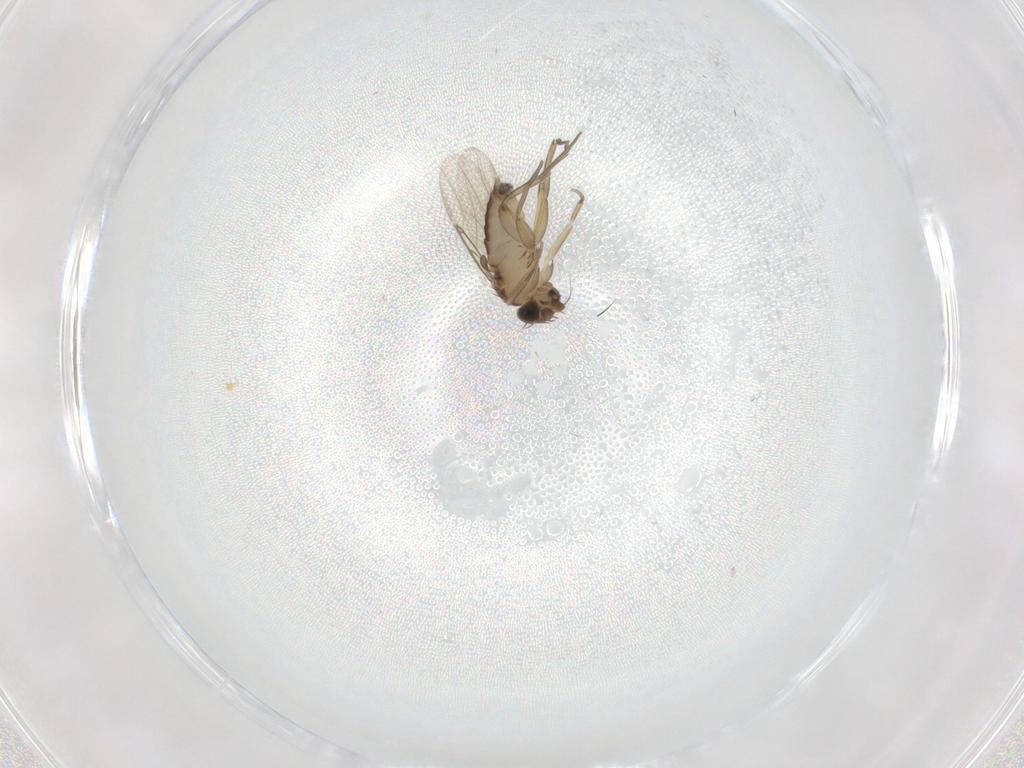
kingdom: Animalia
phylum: Arthropoda
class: Insecta
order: Diptera
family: Phoridae
